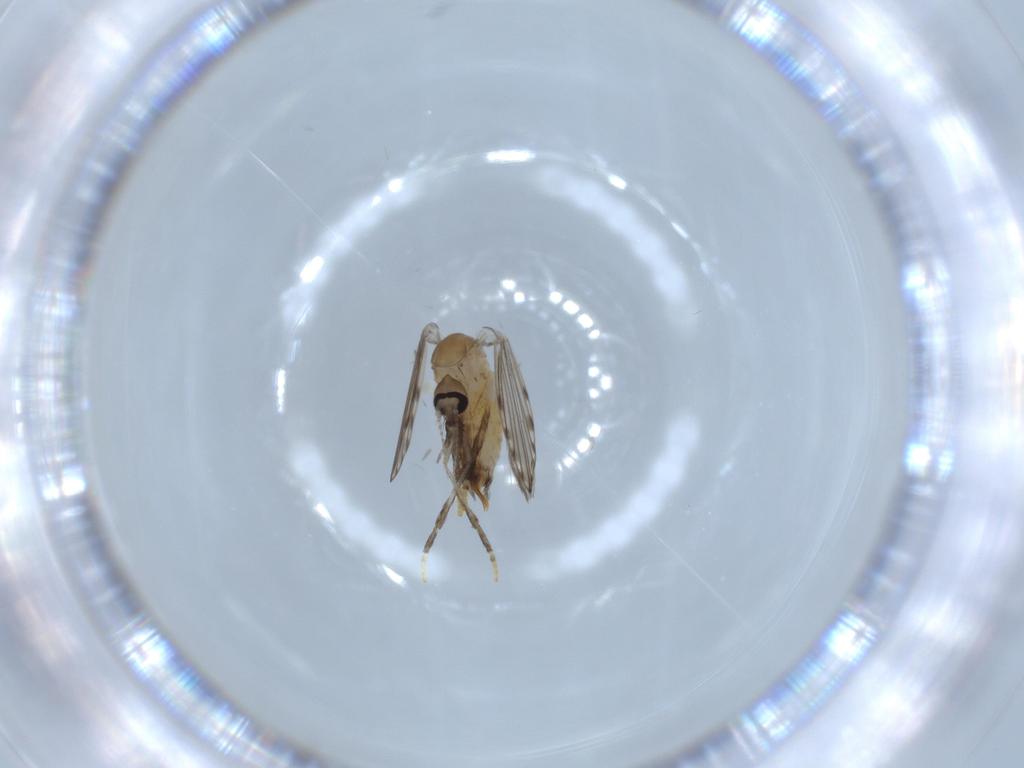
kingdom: Animalia
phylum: Arthropoda
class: Insecta
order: Diptera
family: Psychodidae
